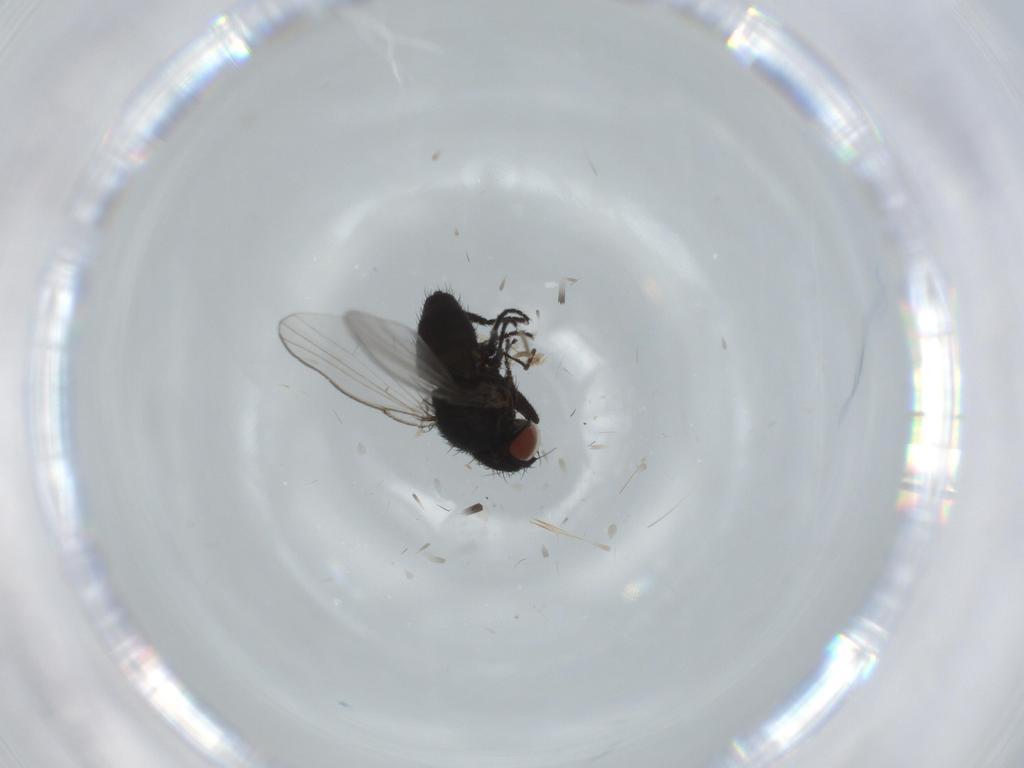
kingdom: Animalia
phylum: Arthropoda
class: Insecta
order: Diptera
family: Milichiidae
